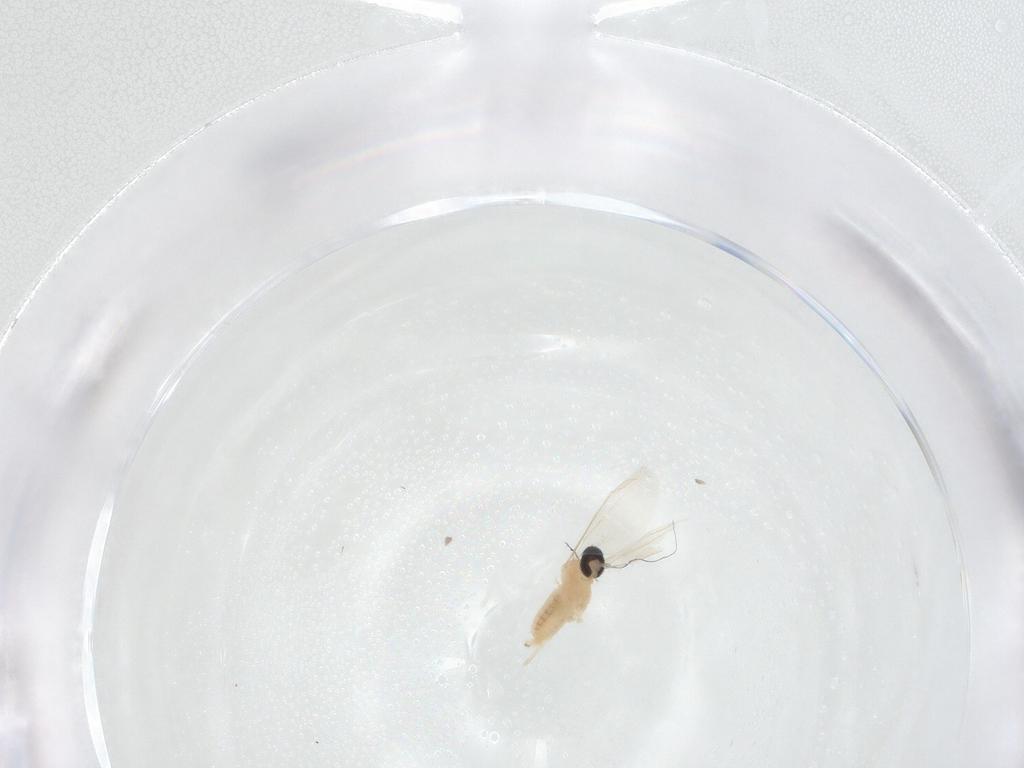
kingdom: Animalia
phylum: Arthropoda
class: Insecta
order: Diptera
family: Cecidomyiidae
